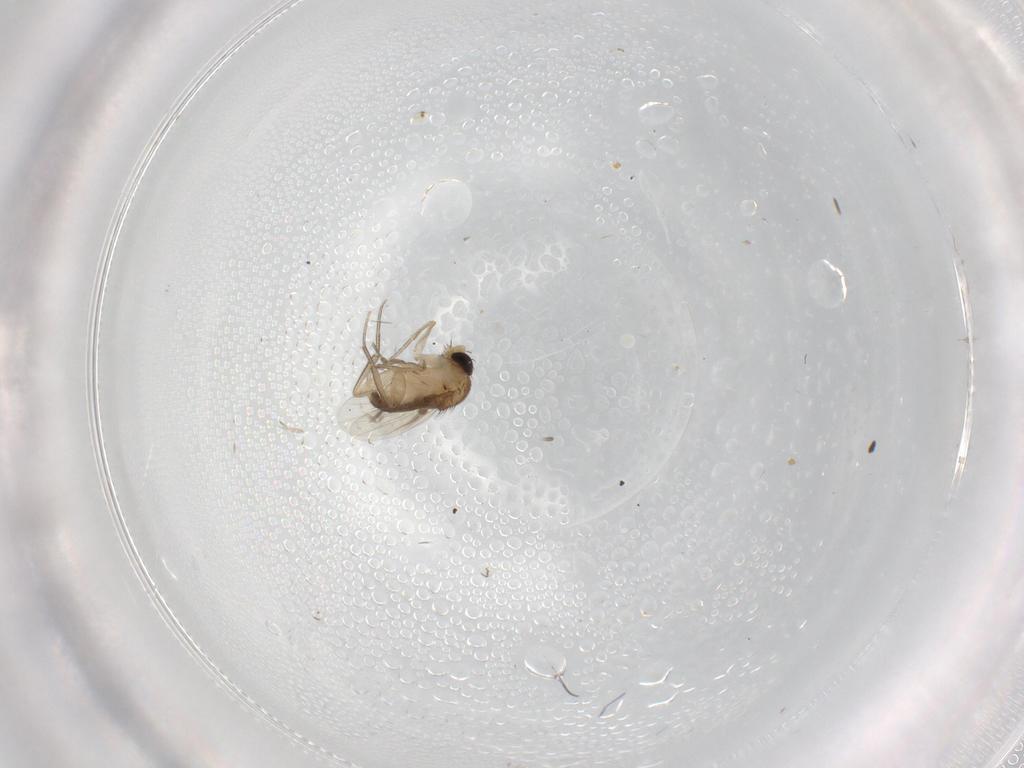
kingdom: Animalia
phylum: Arthropoda
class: Insecta
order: Diptera
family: Phoridae
